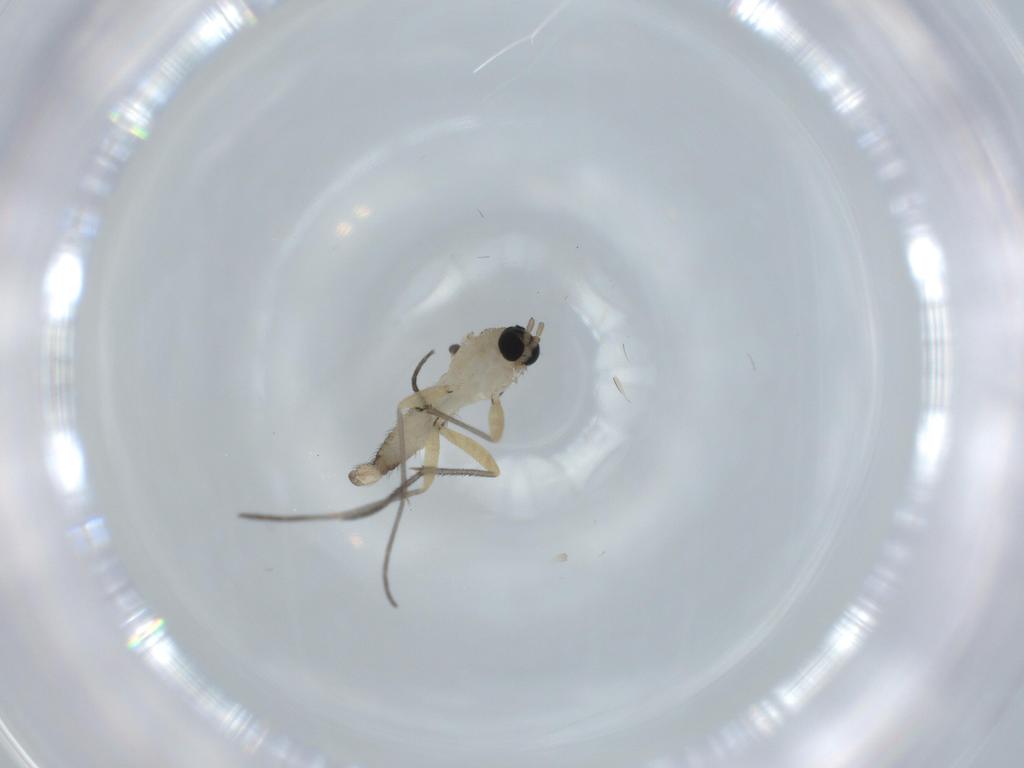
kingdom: Animalia
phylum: Arthropoda
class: Insecta
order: Diptera
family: Sciaridae
